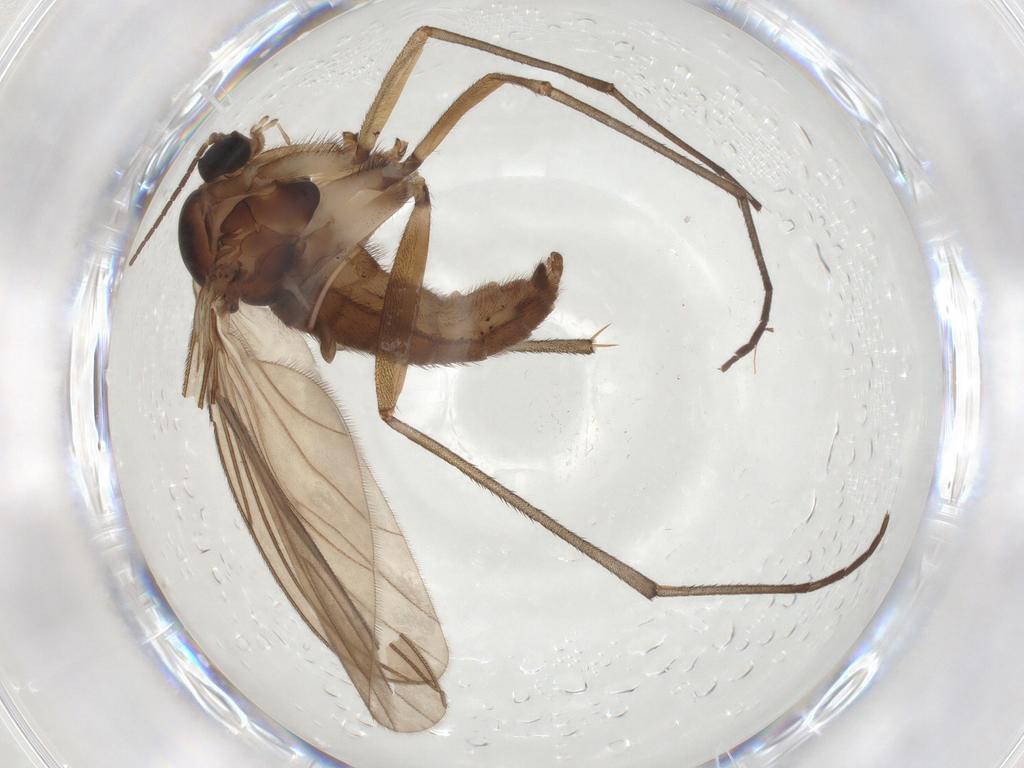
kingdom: Animalia
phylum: Arthropoda
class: Insecta
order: Diptera
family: Sciaridae
